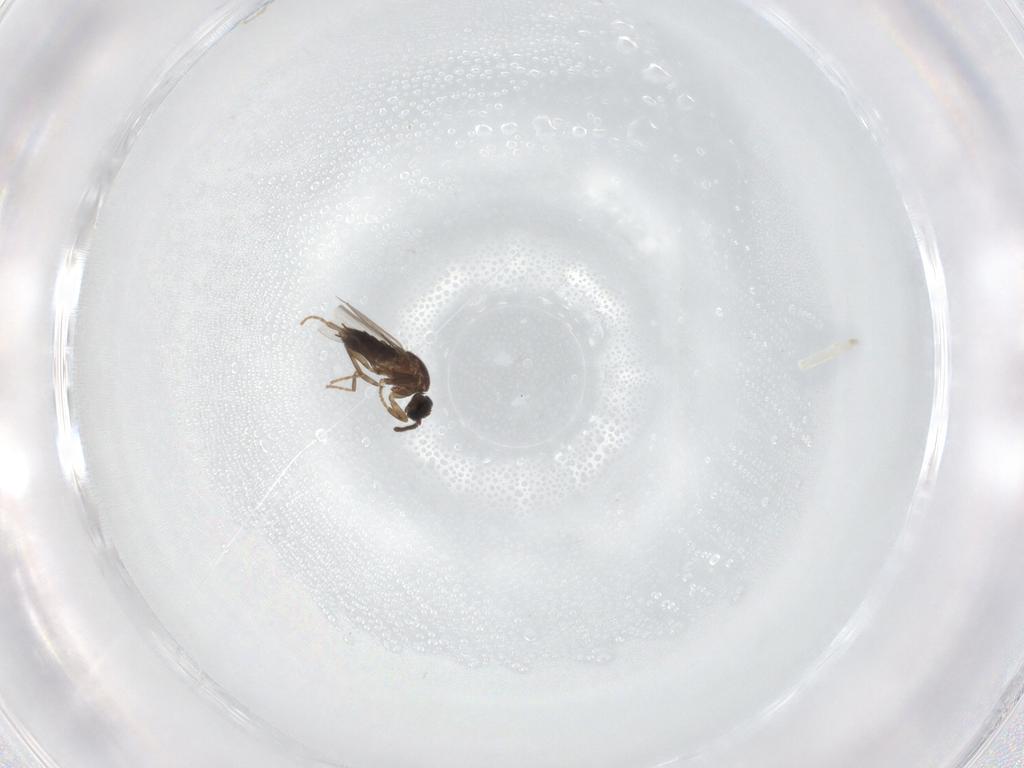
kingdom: Animalia
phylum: Arthropoda
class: Insecta
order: Diptera
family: Scatopsidae
